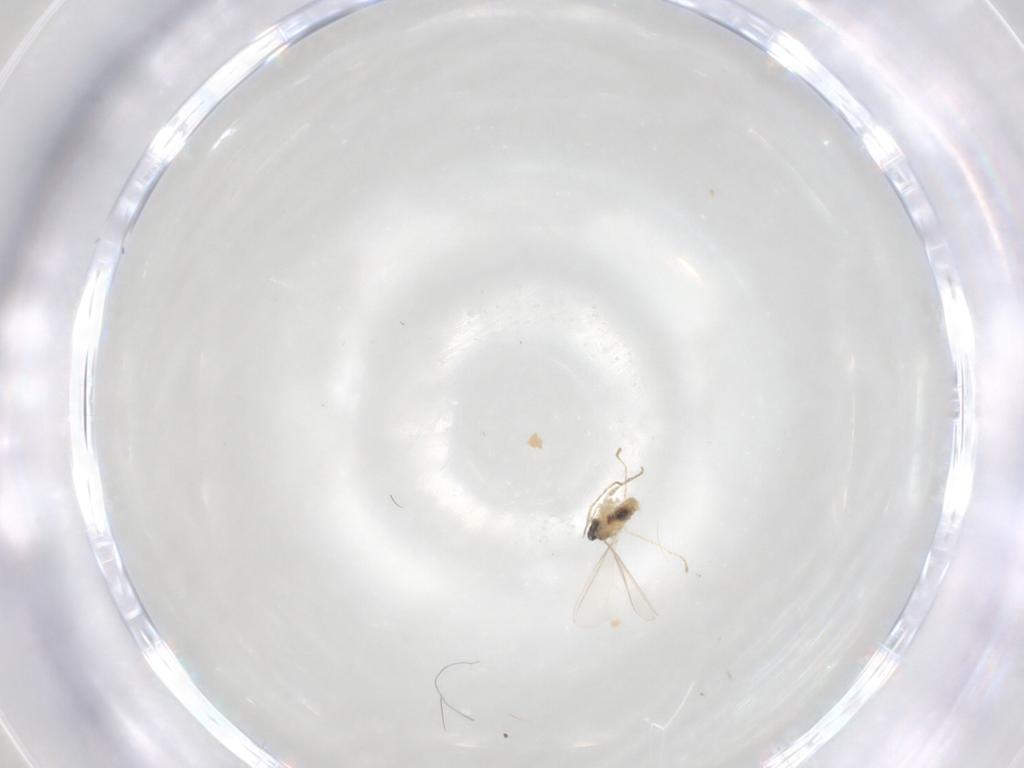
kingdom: Animalia
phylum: Arthropoda
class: Insecta
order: Diptera
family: Cecidomyiidae
